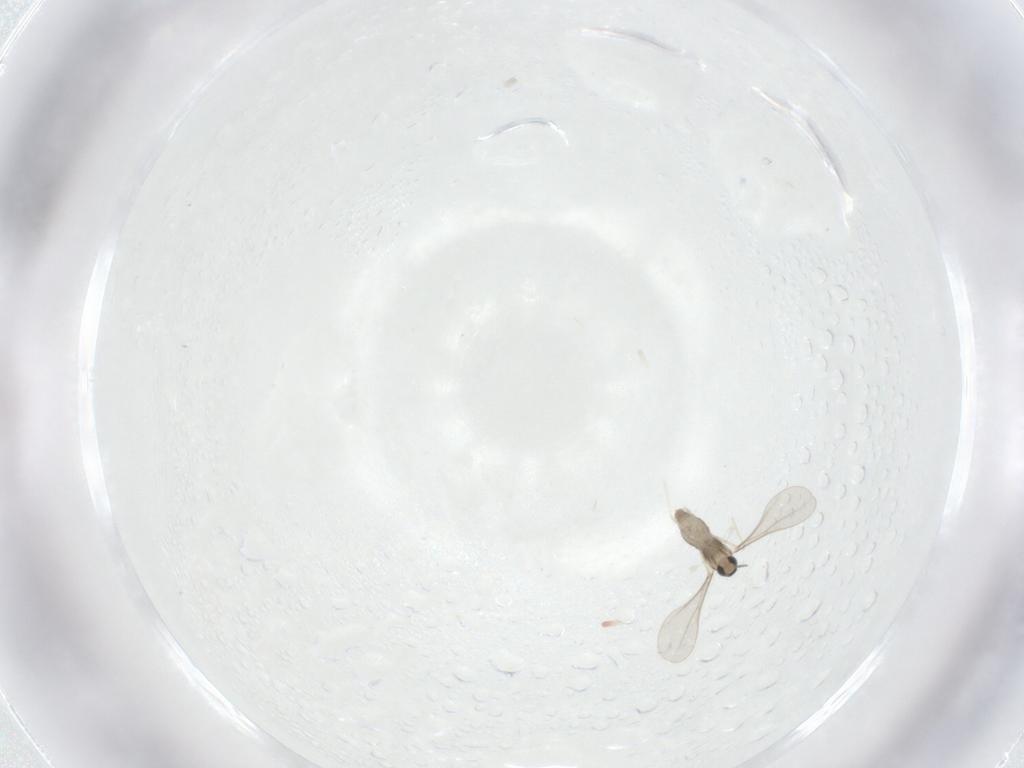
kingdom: Animalia
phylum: Arthropoda
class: Insecta
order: Diptera
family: Cecidomyiidae
